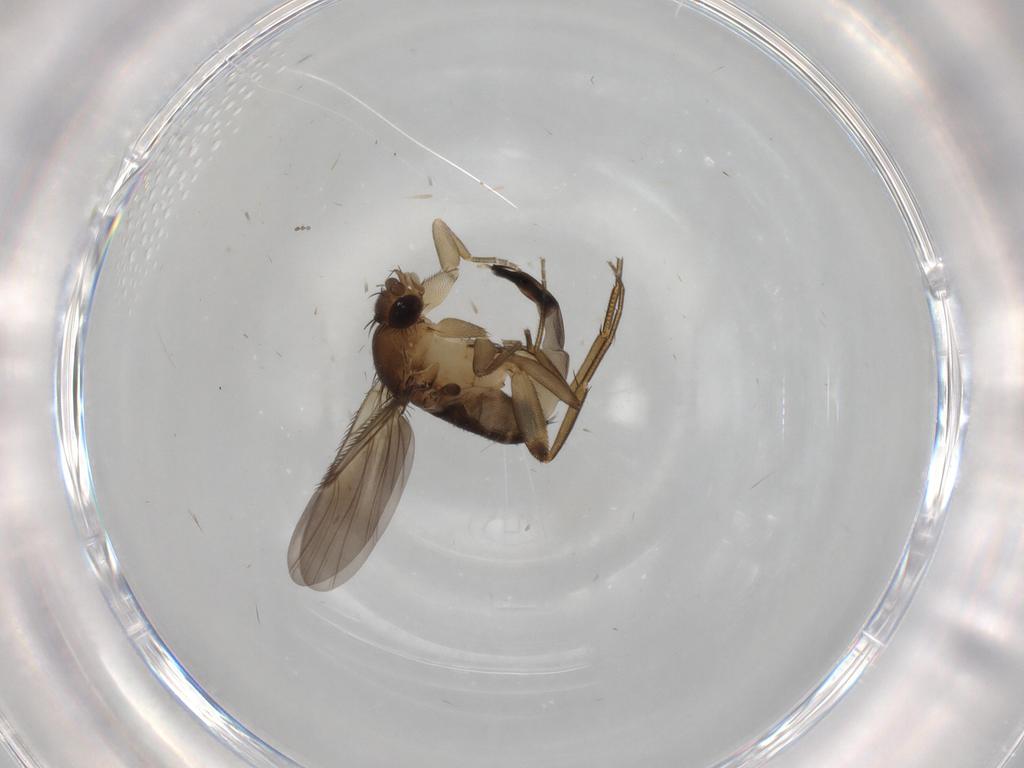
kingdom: Animalia
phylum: Arthropoda
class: Insecta
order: Diptera
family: Phoridae
